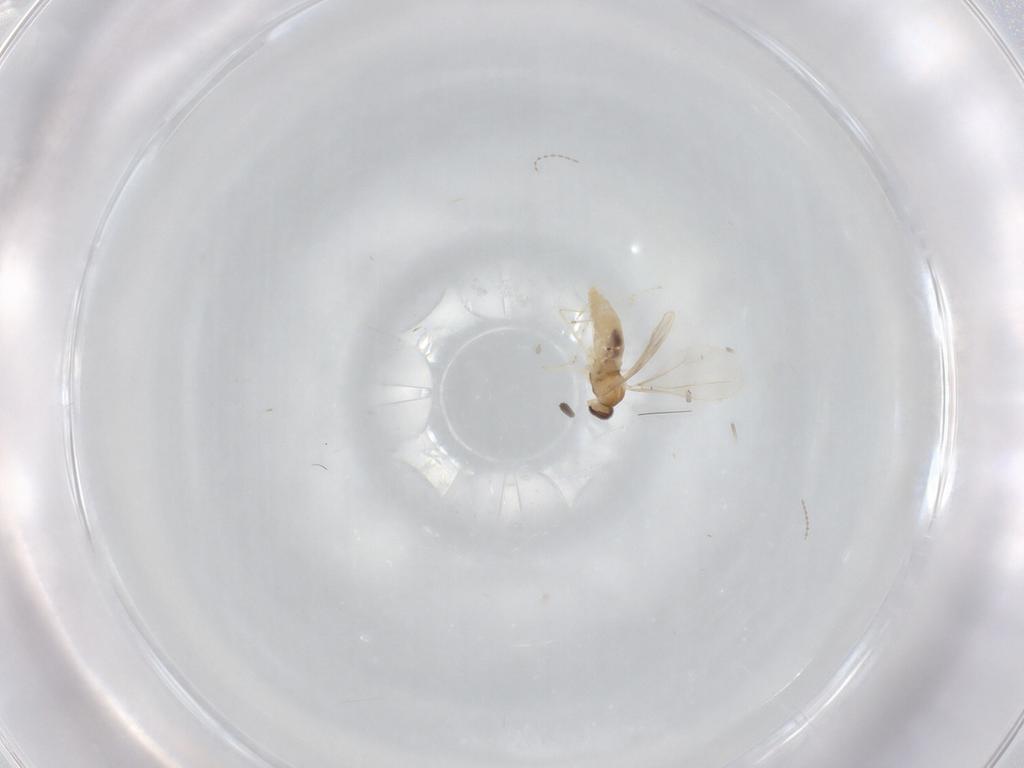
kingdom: Animalia
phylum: Arthropoda
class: Insecta
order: Diptera
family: Cecidomyiidae
